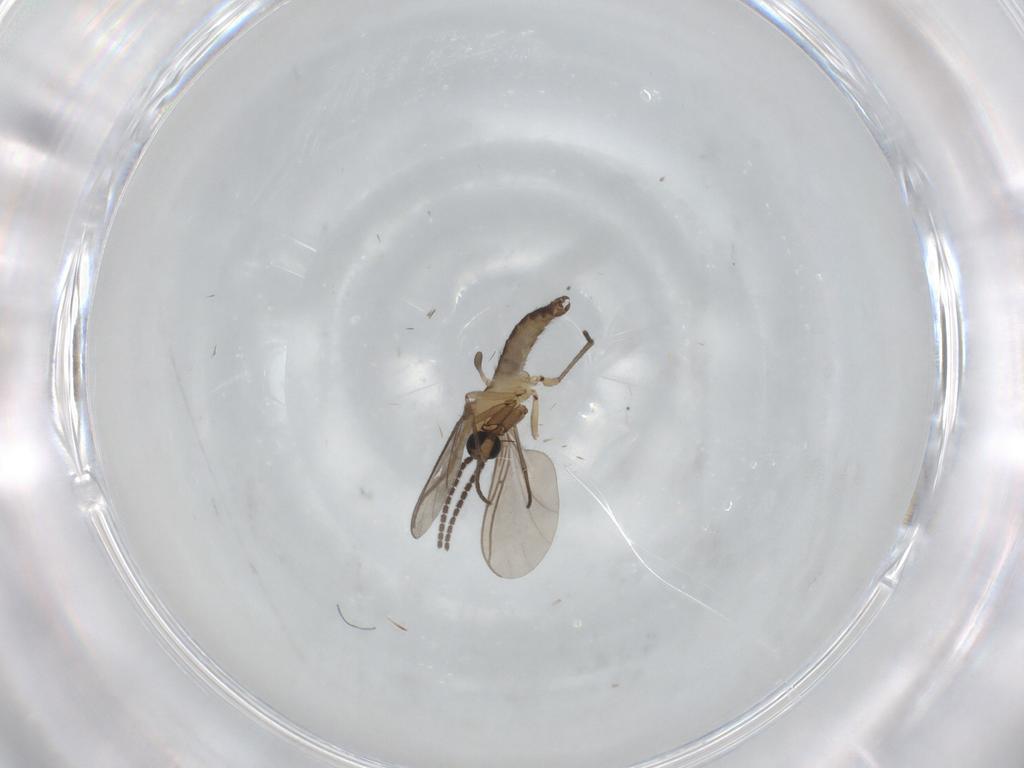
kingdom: Animalia
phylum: Arthropoda
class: Insecta
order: Diptera
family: Sciaridae
